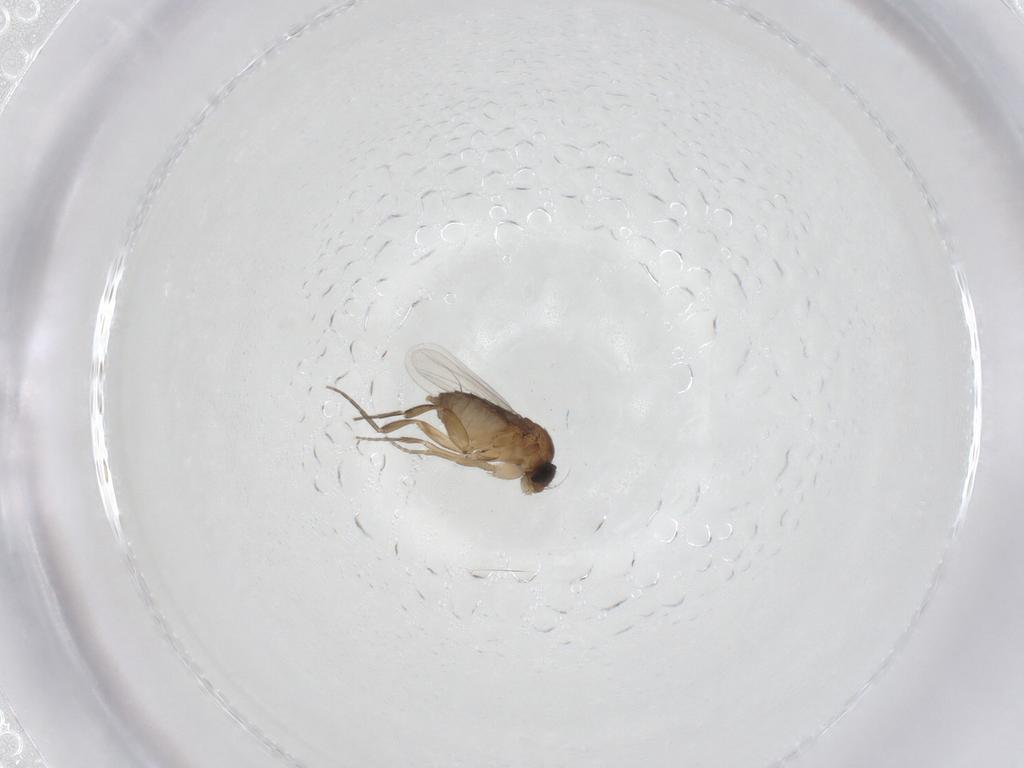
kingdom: Animalia
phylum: Arthropoda
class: Insecta
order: Diptera
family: Phoridae
